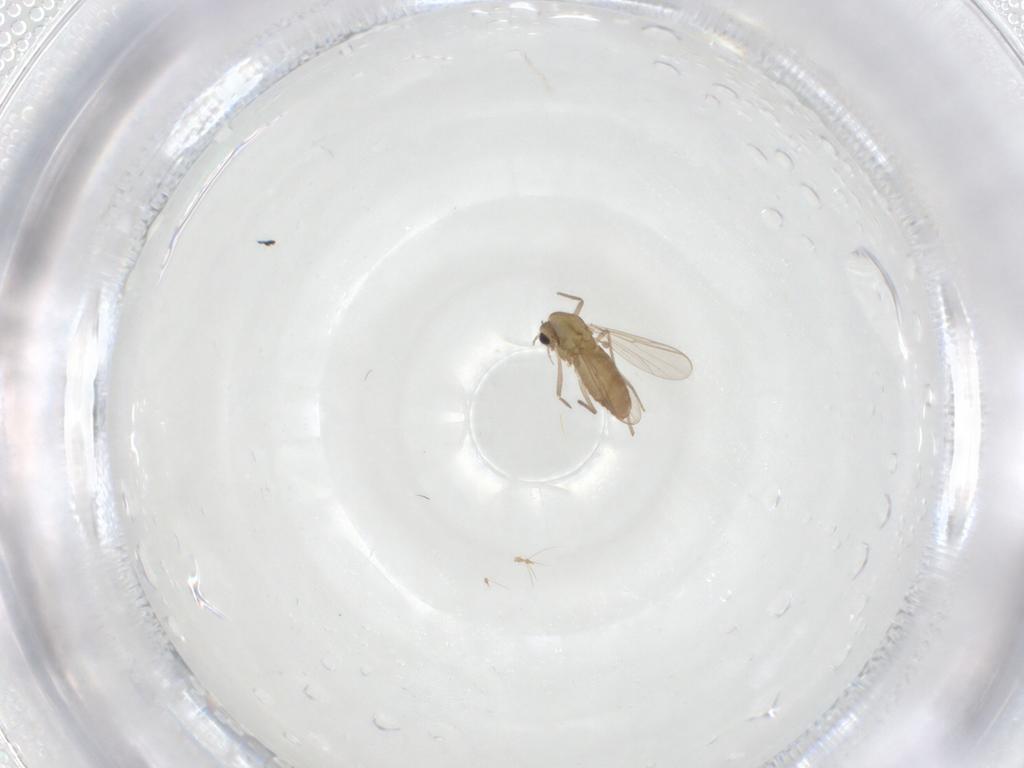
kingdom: Animalia
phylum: Arthropoda
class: Insecta
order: Diptera
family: Chironomidae
